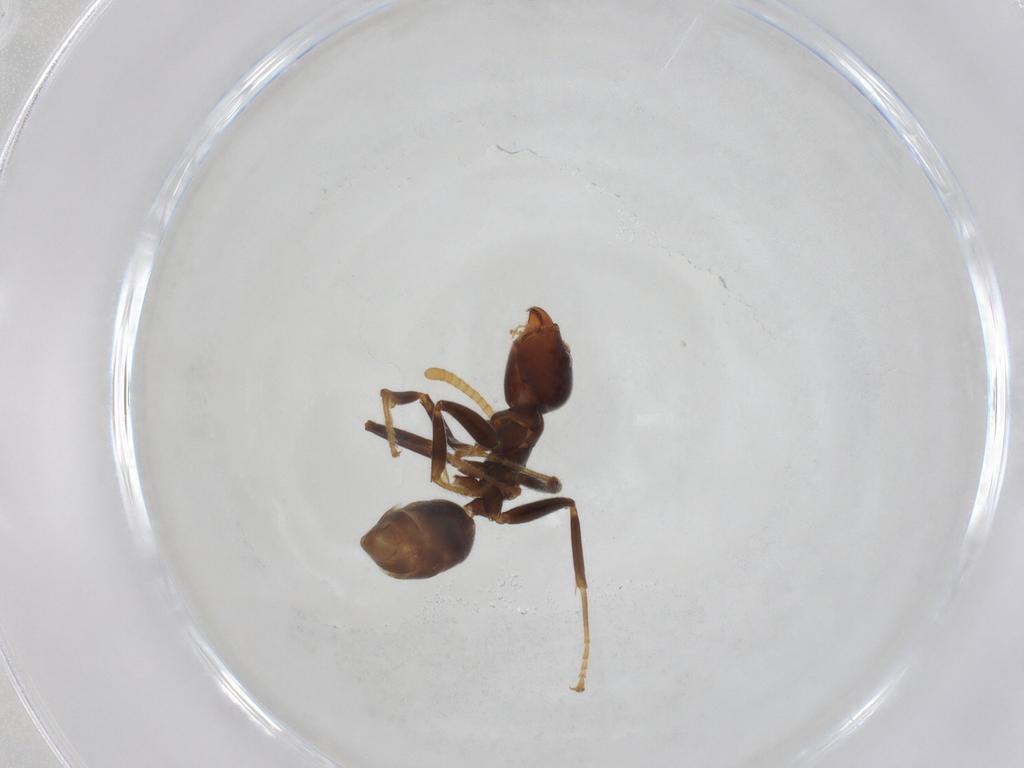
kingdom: Animalia
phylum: Arthropoda
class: Insecta
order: Hymenoptera
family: Formicidae
